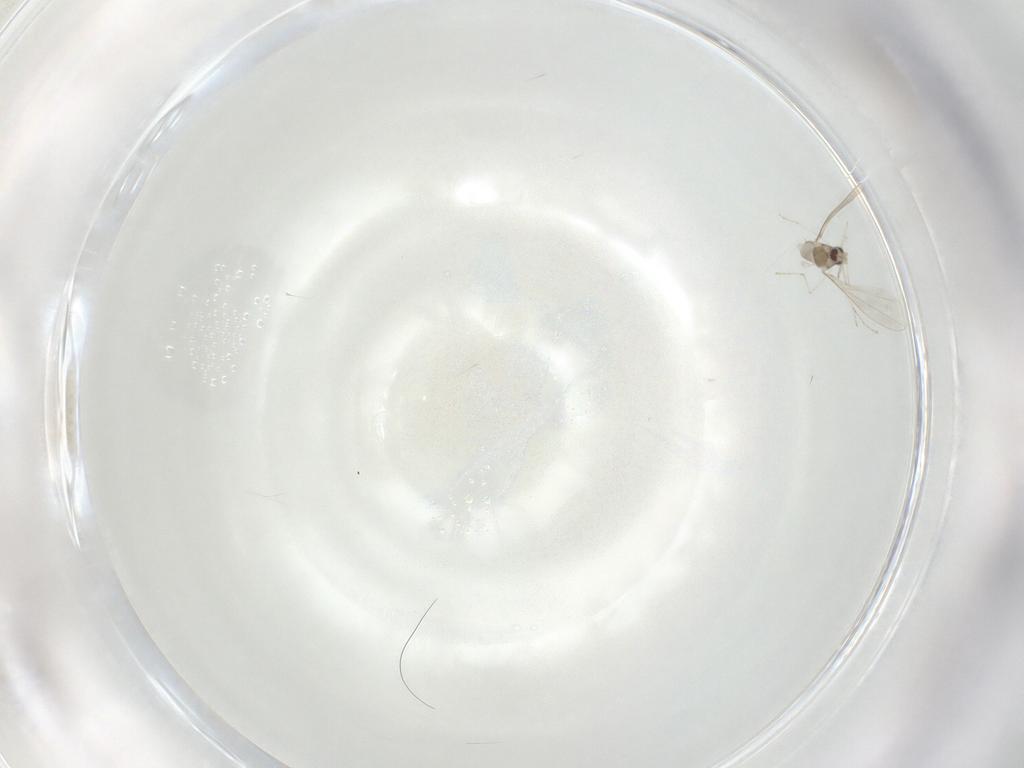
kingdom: Animalia
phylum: Arthropoda
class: Insecta
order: Diptera
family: Cecidomyiidae
